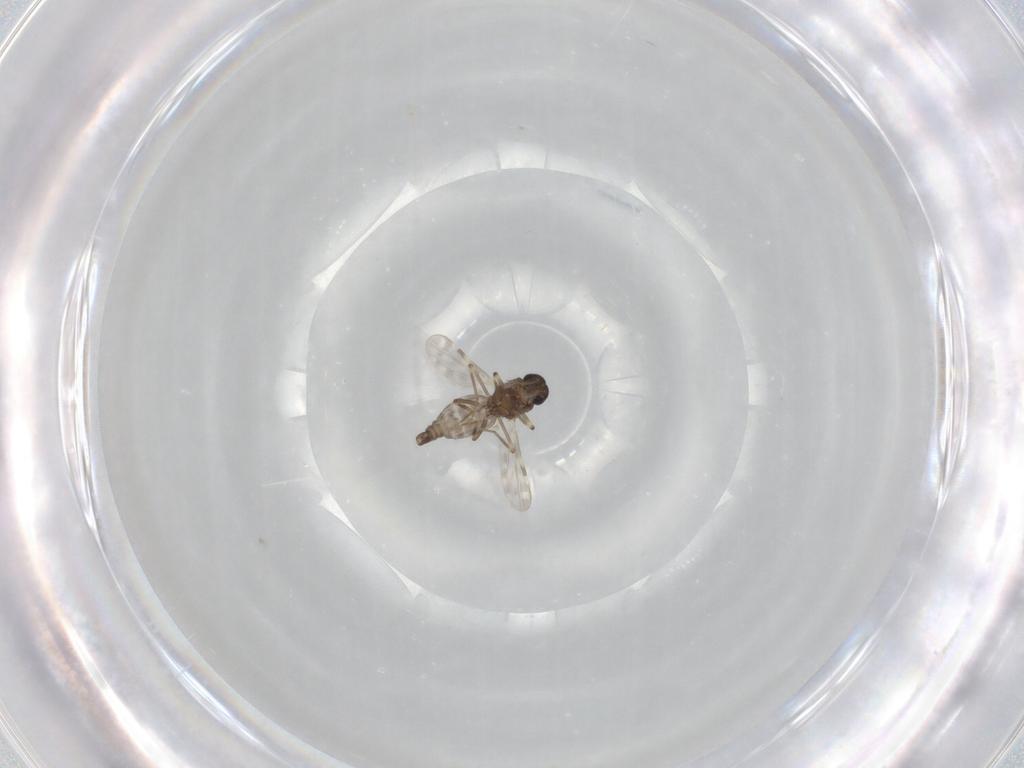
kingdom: Animalia
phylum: Arthropoda
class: Insecta
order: Diptera
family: Ceratopogonidae
